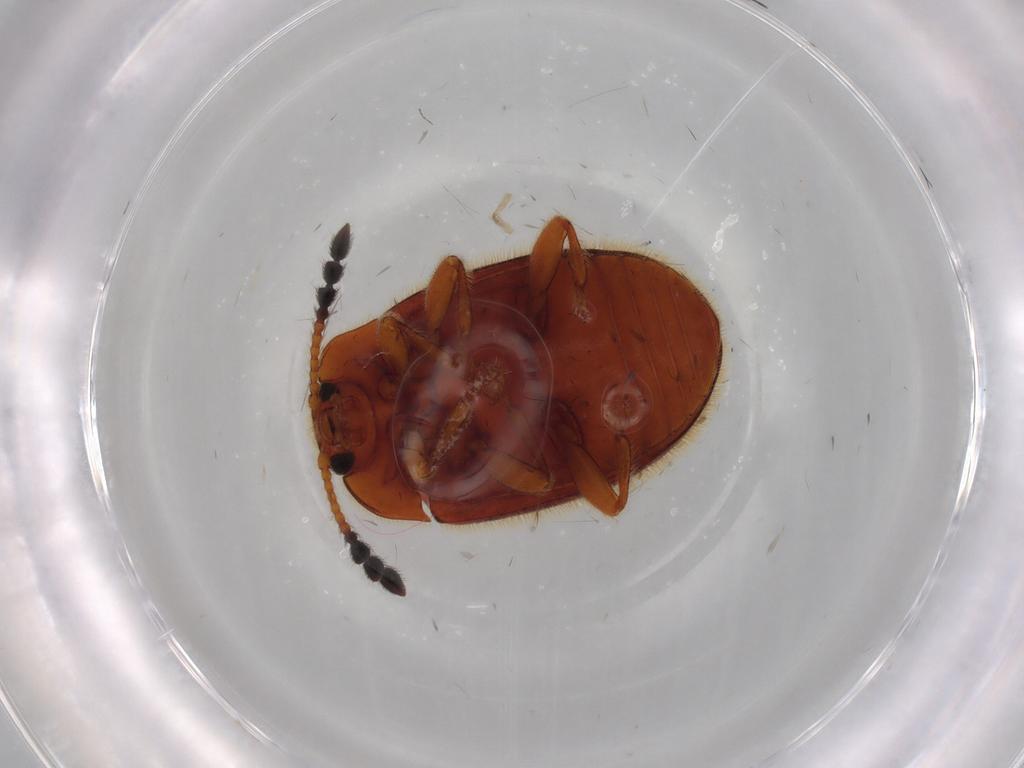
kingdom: Animalia
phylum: Arthropoda
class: Insecta
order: Coleoptera
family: Endomychidae
